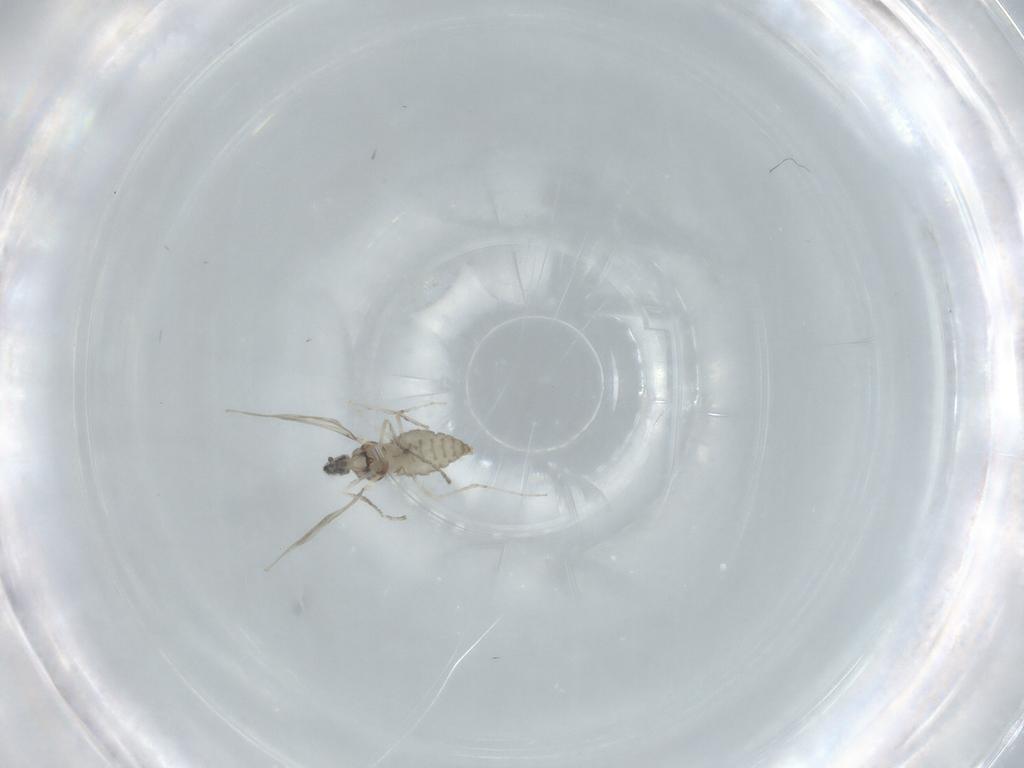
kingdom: Animalia
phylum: Arthropoda
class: Insecta
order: Diptera
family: Cecidomyiidae
